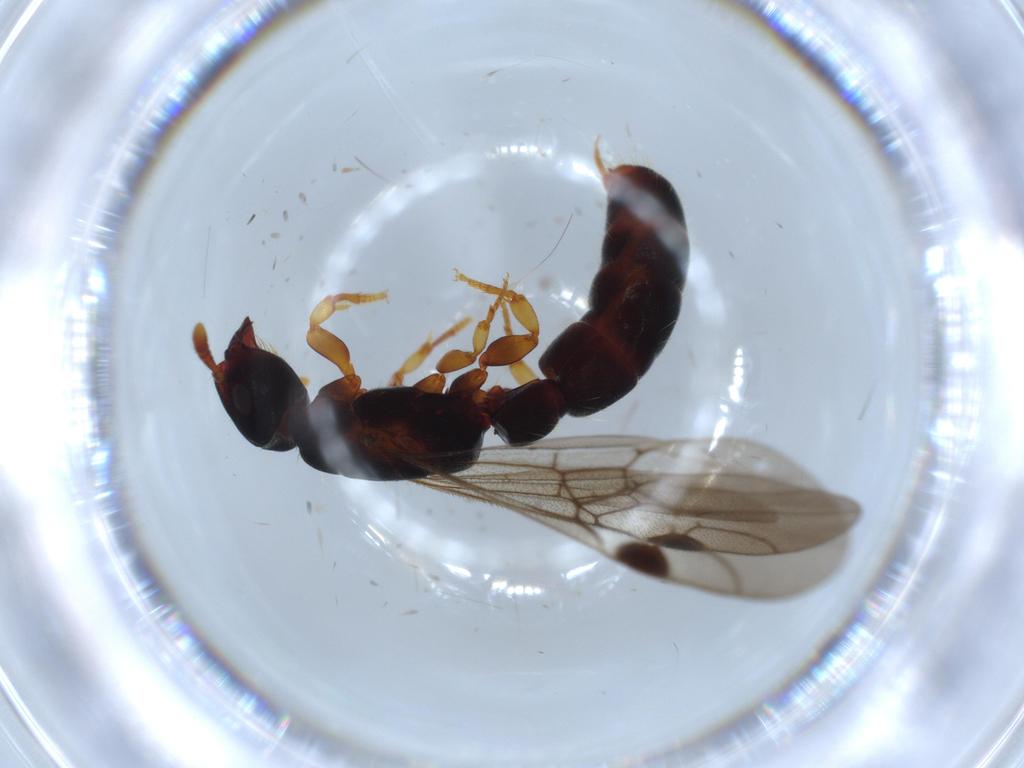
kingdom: Animalia
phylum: Arthropoda
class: Insecta
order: Hymenoptera
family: Formicidae
